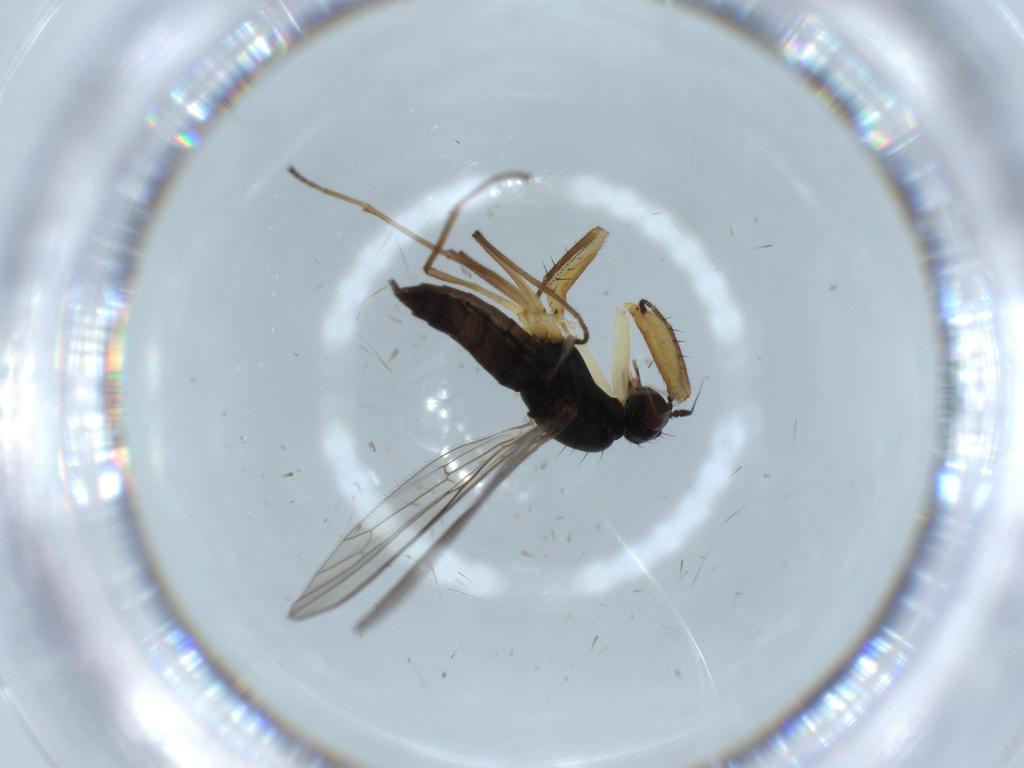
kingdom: Animalia
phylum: Arthropoda
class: Insecta
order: Diptera
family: Empididae
